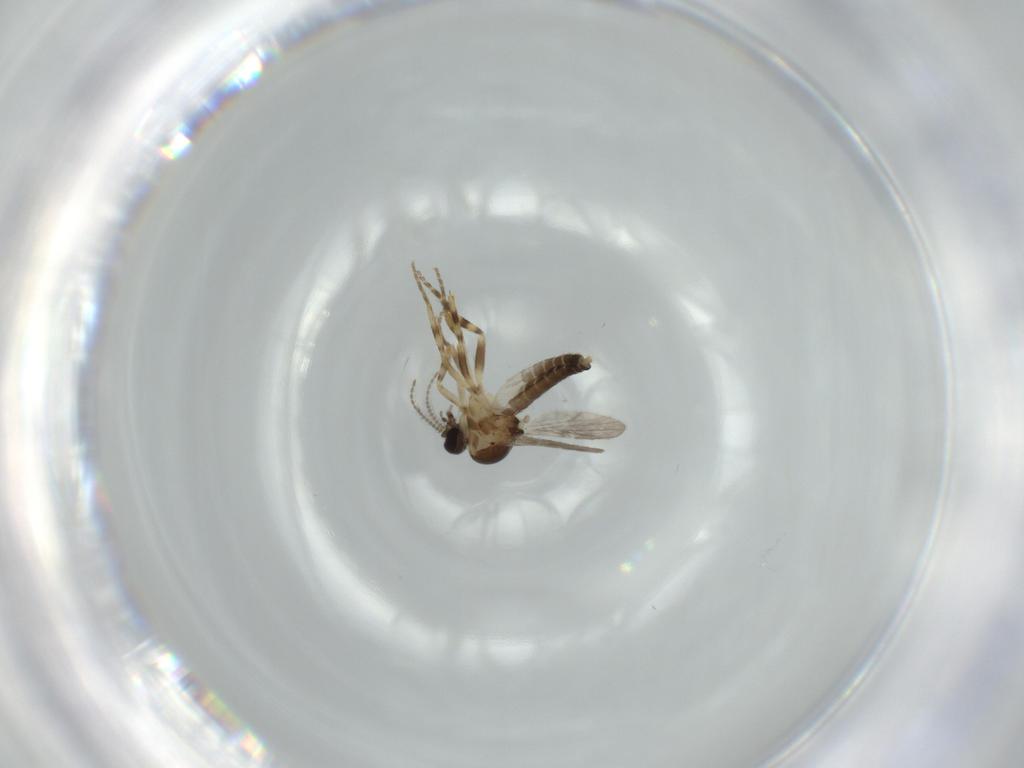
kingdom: Animalia
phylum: Arthropoda
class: Insecta
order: Diptera
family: Ceratopogonidae
